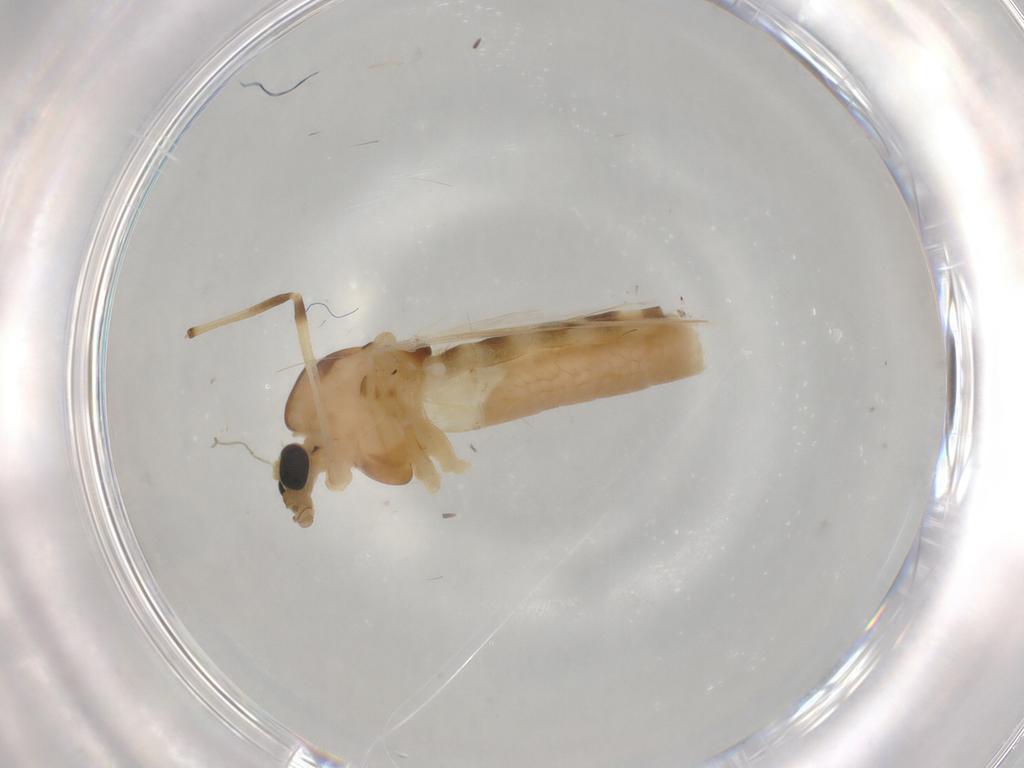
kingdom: Animalia
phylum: Arthropoda
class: Insecta
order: Diptera
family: Chironomidae
